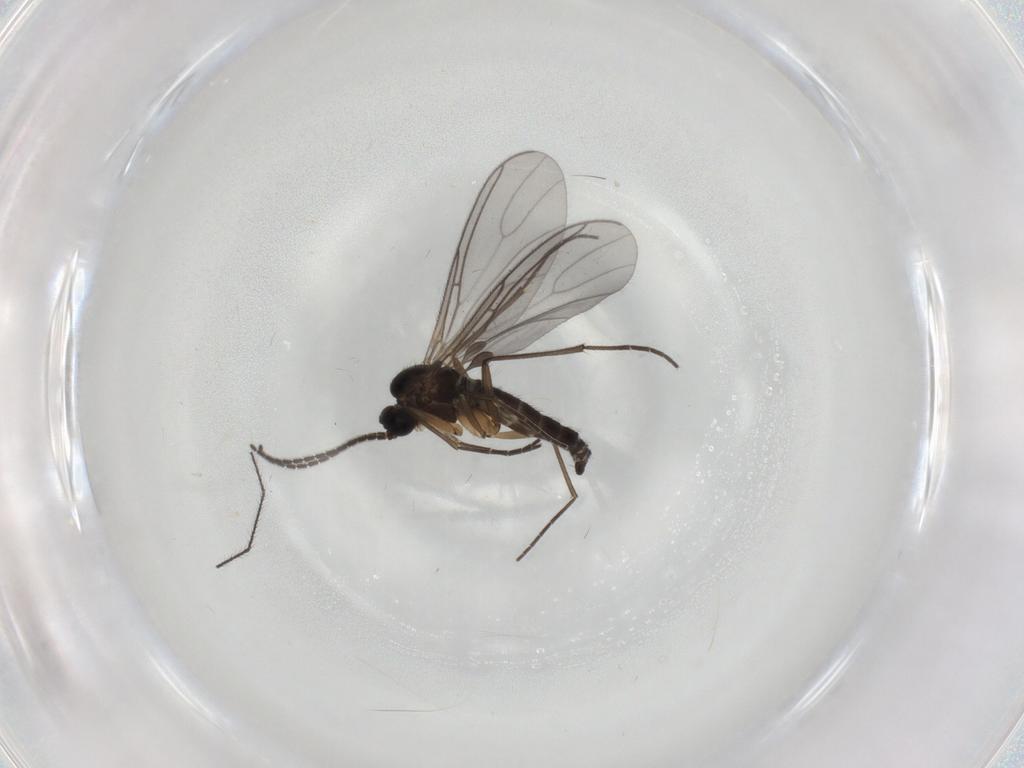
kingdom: Animalia
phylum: Arthropoda
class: Insecta
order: Diptera
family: Sciaridae
